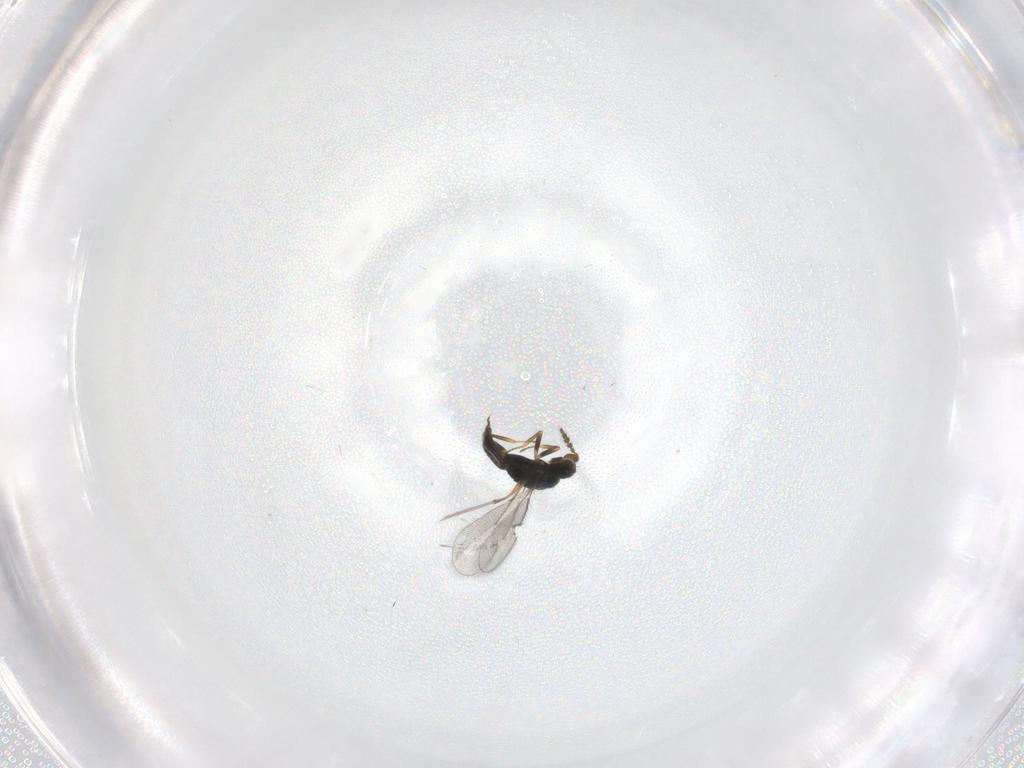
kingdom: Animalia
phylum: Arthropoda
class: Insecta
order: Hymenoptera
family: Eulophidae
